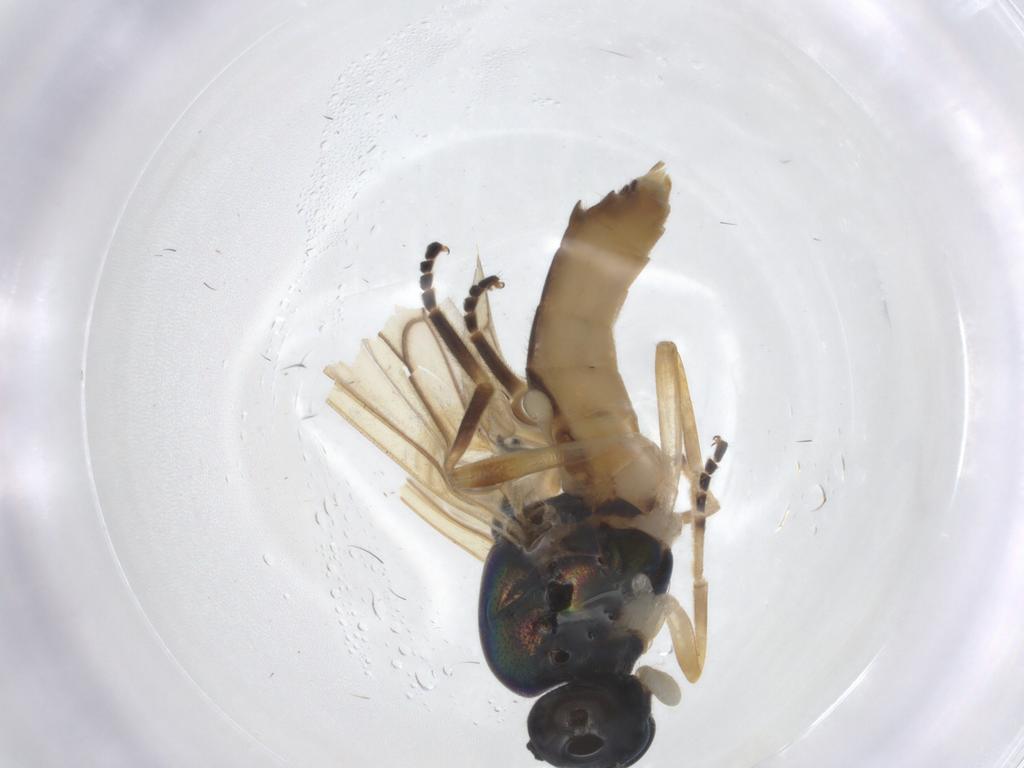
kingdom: Animalia
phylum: Arthropoda
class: Insecta
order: Diptera
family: Stratiomyidae
